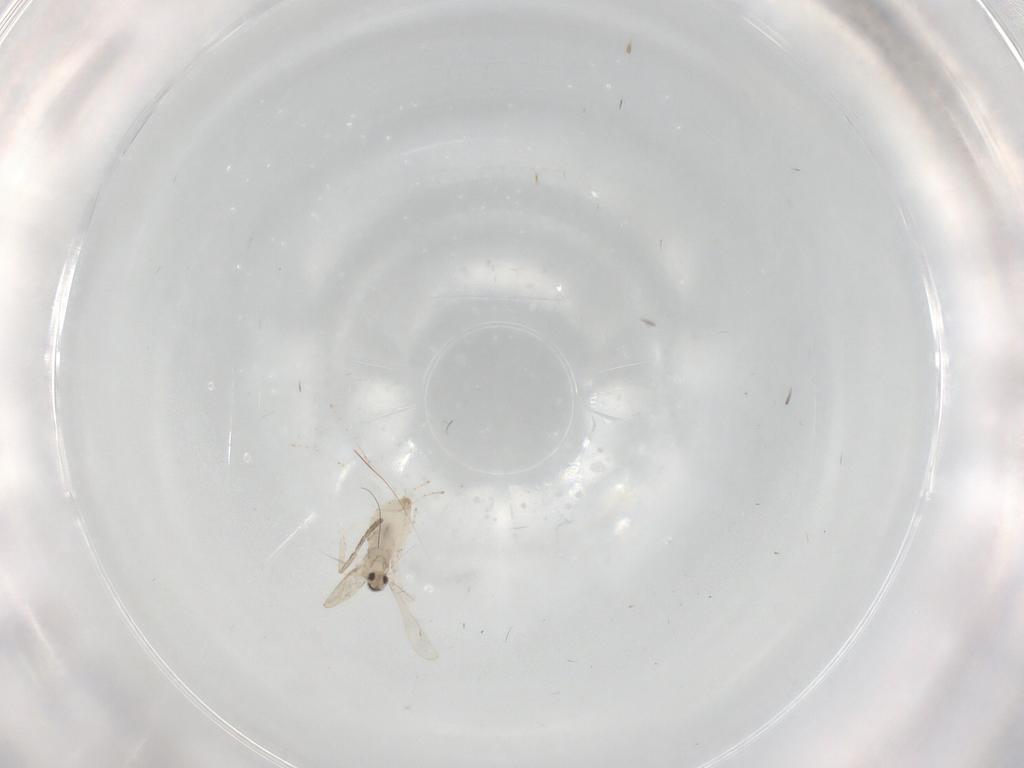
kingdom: Animalia
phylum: Arthropoda
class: Insecta
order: Diptera
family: Cecidomyiidae
